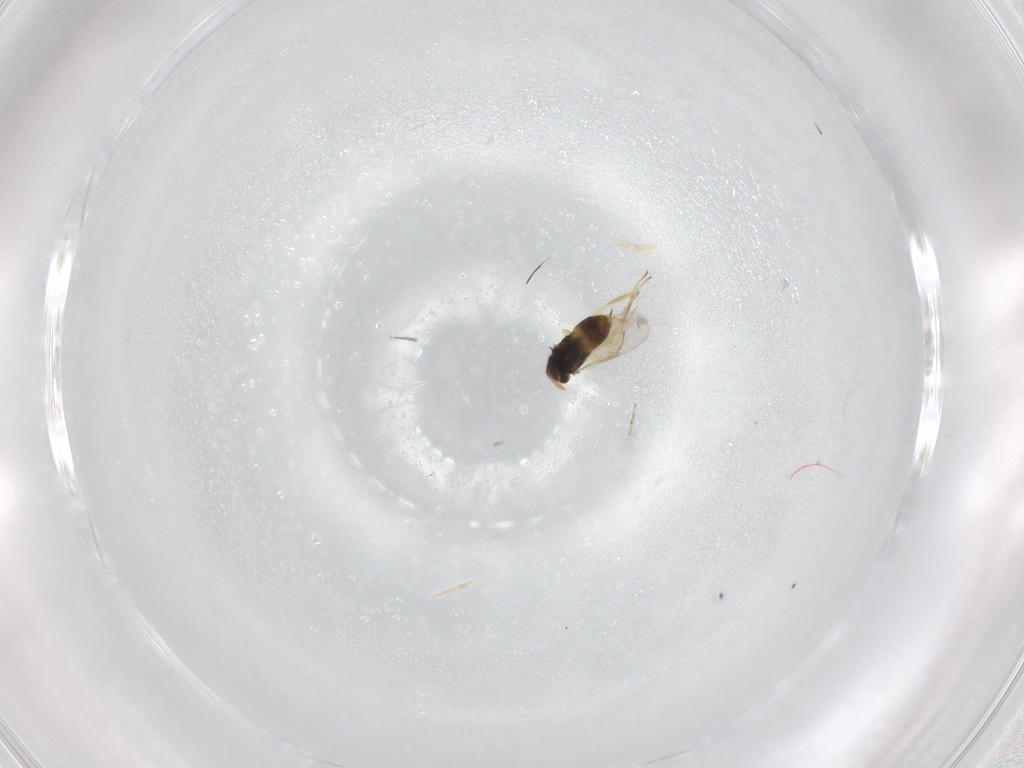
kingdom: Animalia
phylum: Arthropoda
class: Insecta
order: Hymenoptera
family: Aphelinidae
